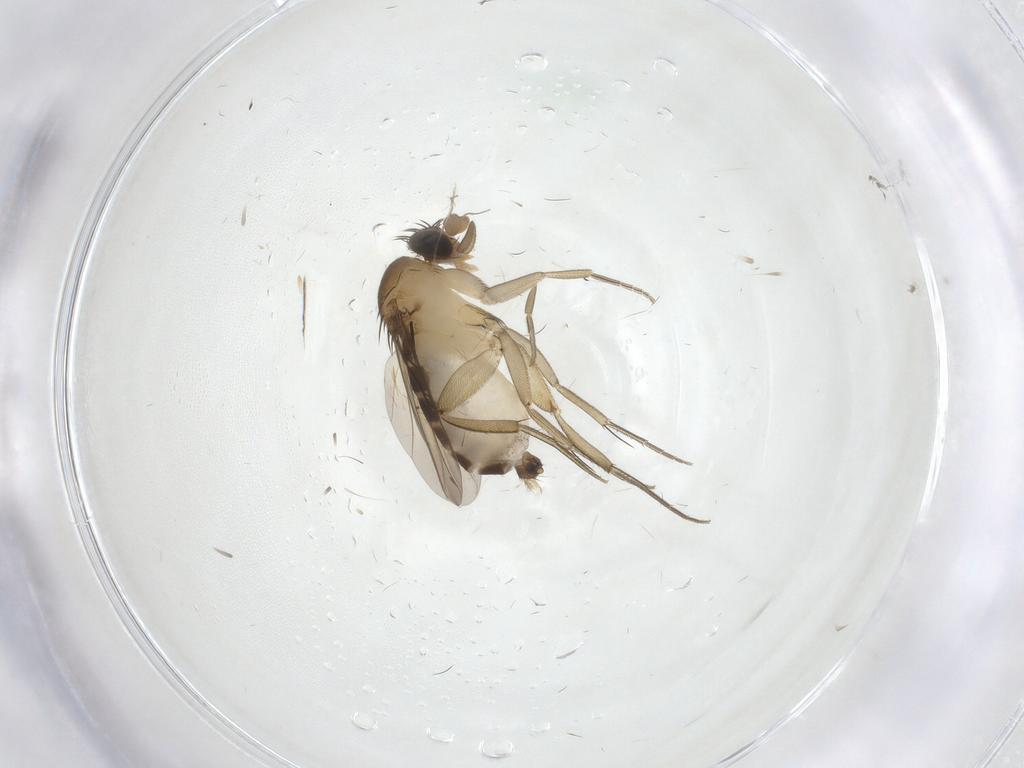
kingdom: Animalia
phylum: Arthropoda
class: Insecta
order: Diptera
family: Phoridae
